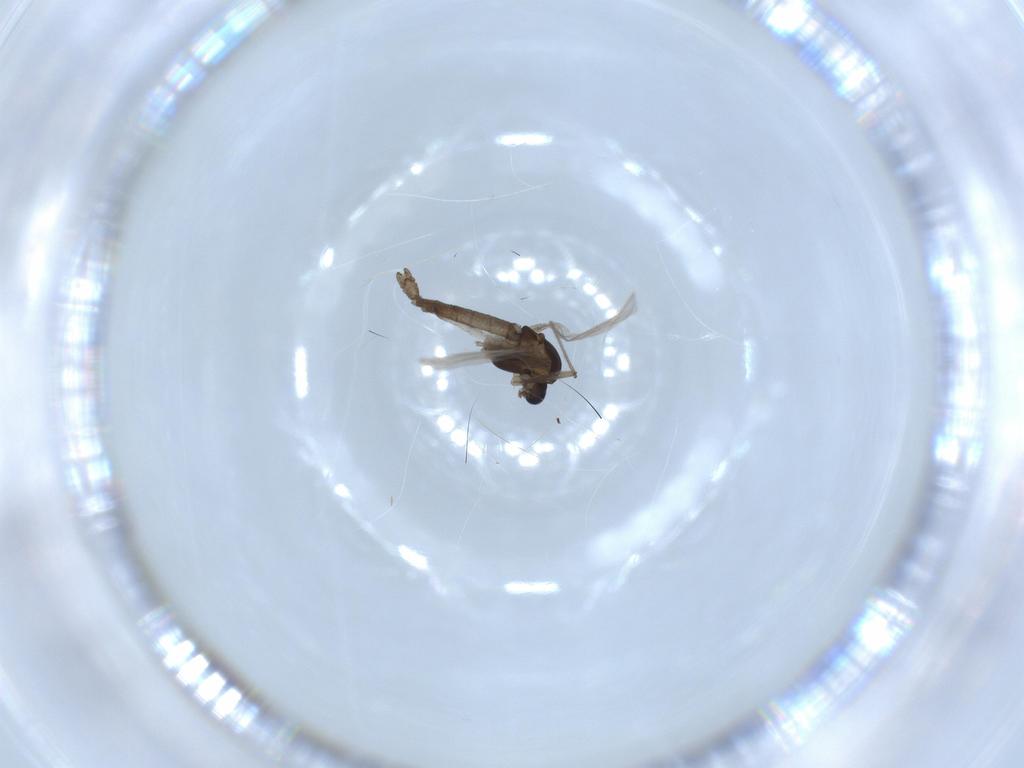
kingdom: Animalia
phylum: Arthropoda
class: Insecta
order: Diptera
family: Chironomidae
